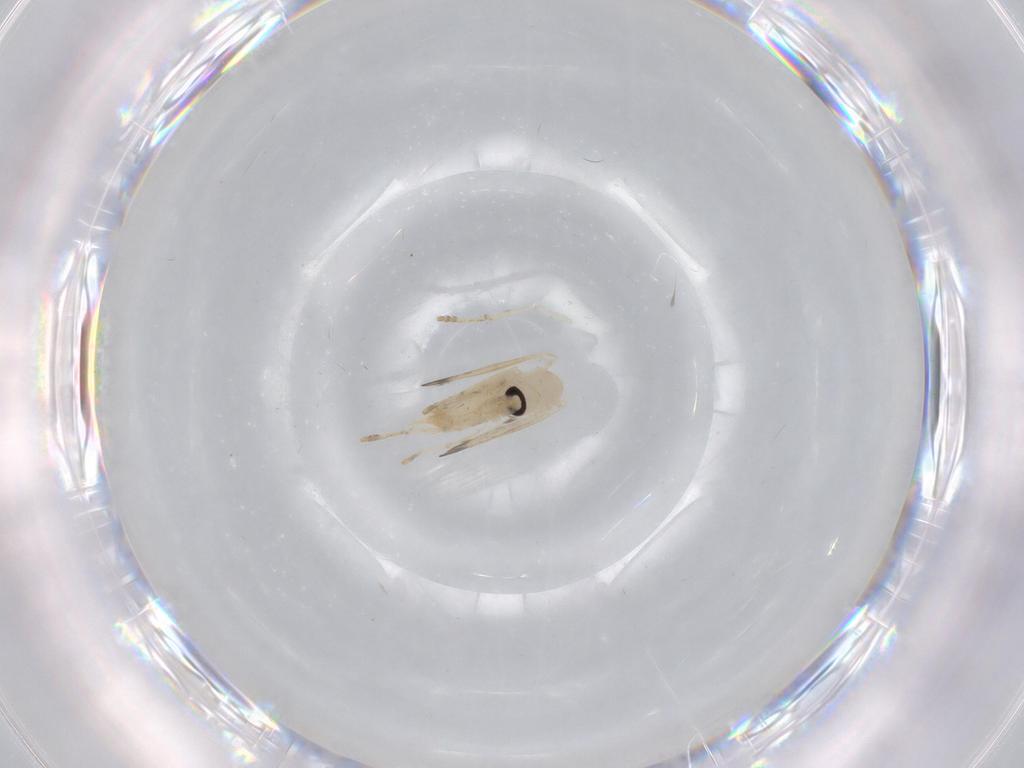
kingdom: Animalia
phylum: Arthropoda
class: Insecta
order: Diptera
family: Psychodidae
